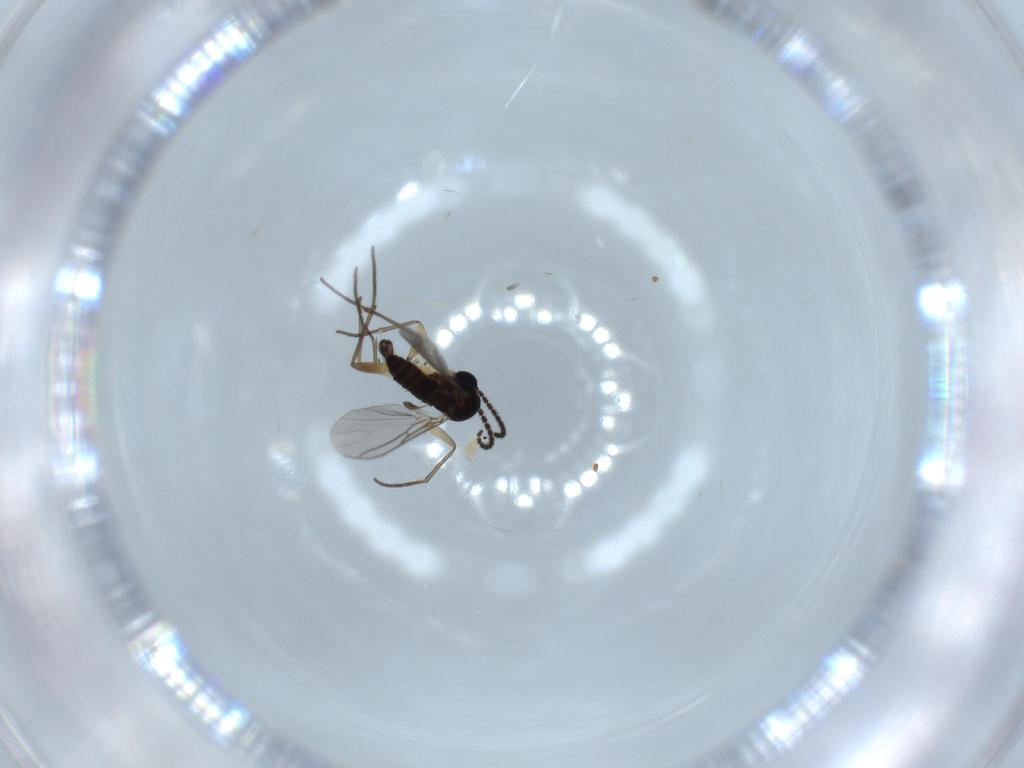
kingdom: Animalia
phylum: Arthropoda
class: Insecta
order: Diptera
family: Sciaridae
